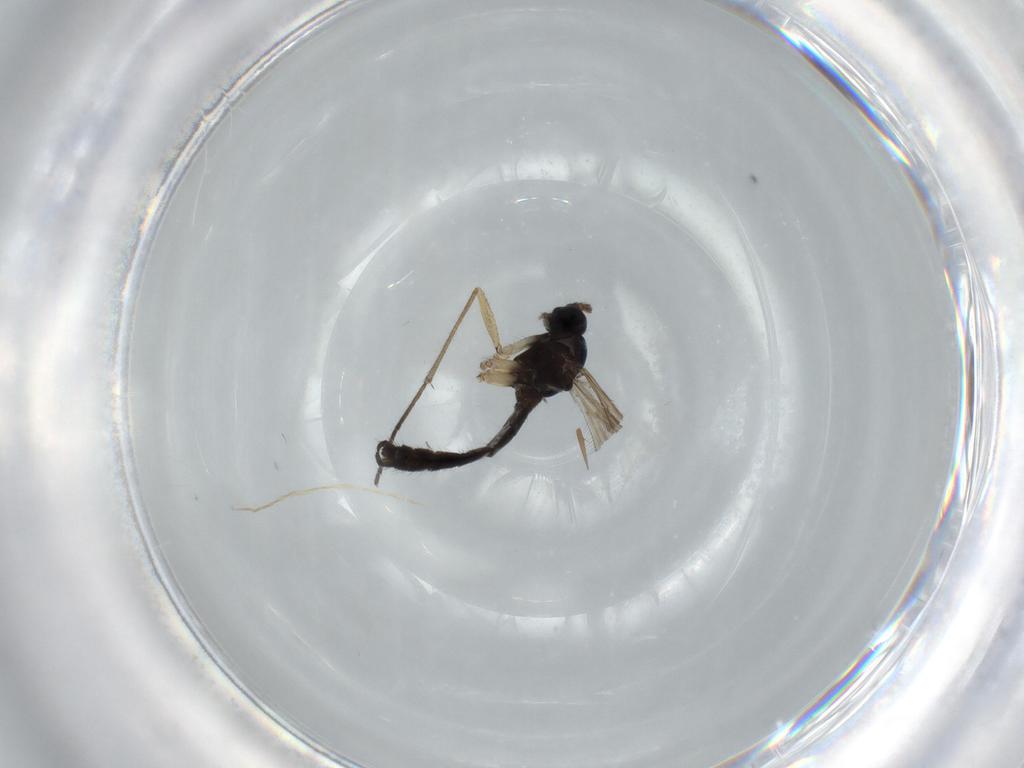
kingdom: Animalia
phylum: Arthropoda
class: Insecta
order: Diptera
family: Sciaridae
